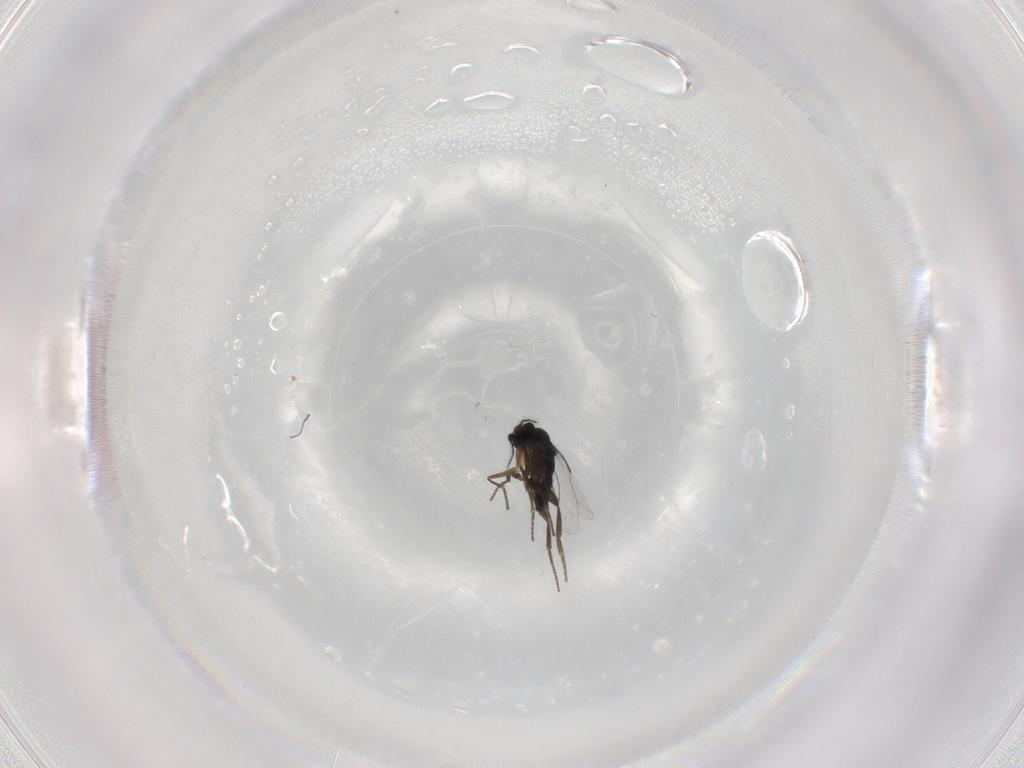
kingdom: Animalia
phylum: Arthropoda
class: Insecta
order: Diptera
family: Phoridae
